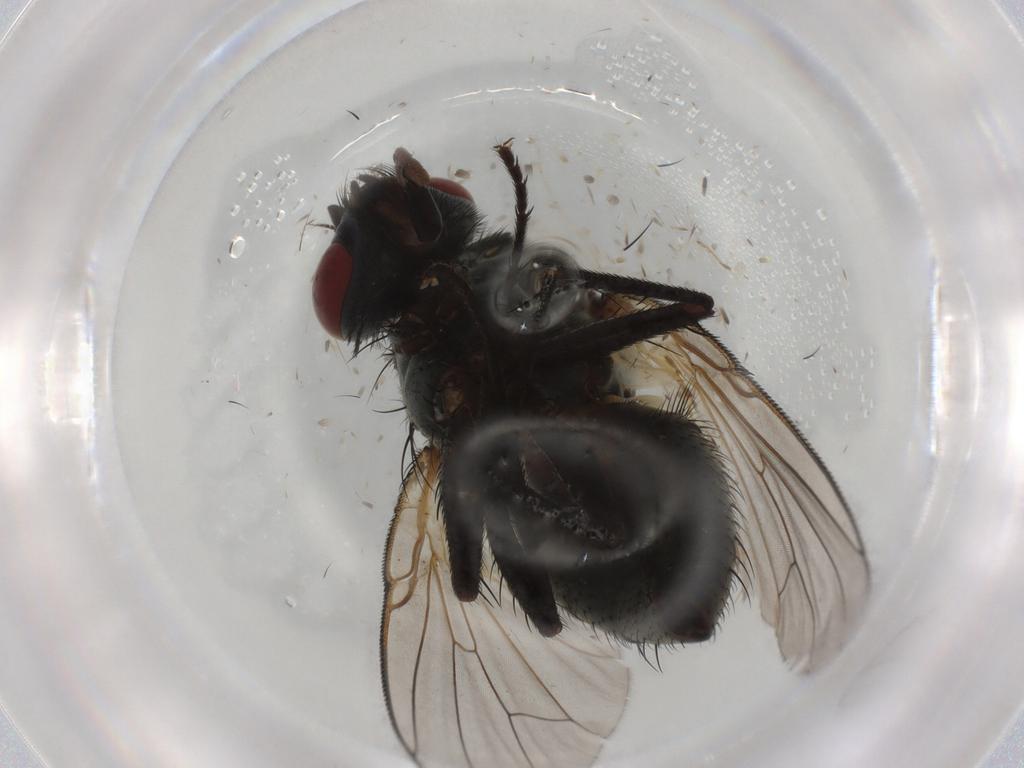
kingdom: Animalia
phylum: Arthropoda
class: Insecta
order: Diptera
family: Muscidae
